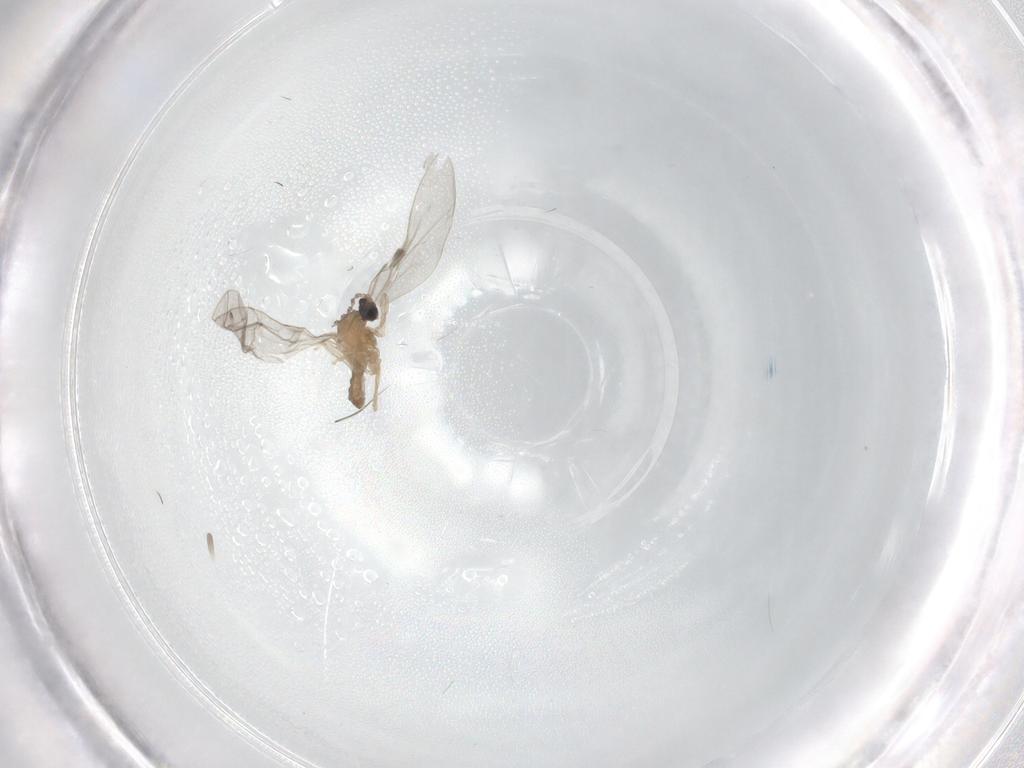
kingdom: Animalia
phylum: Arthropoda
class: Insecta
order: Diptera
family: Cecidomyiidae
